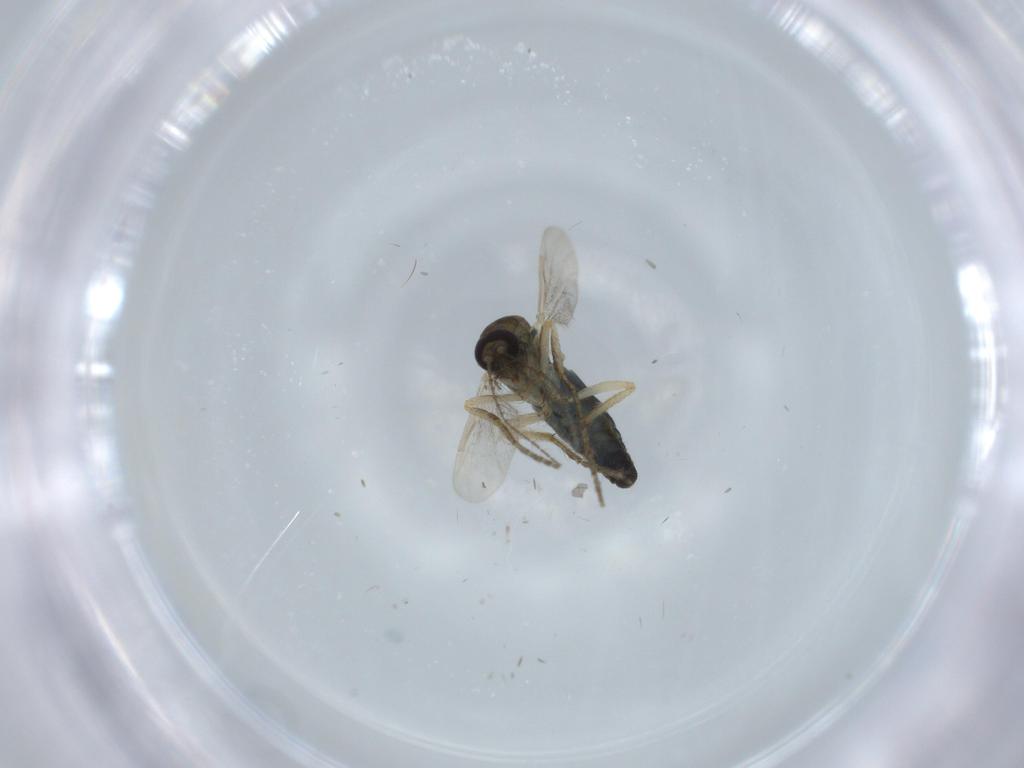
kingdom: Animalia
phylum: Arthropoda
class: Insecta
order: Diptera
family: Ceratopogonidae
